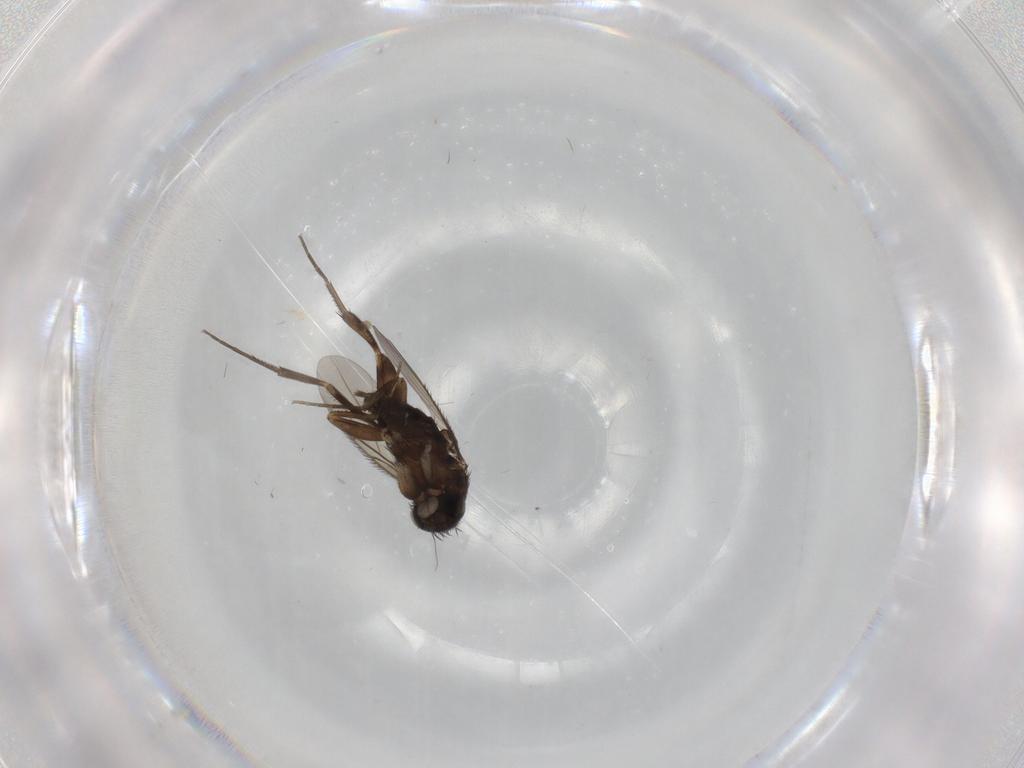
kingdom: Animalia
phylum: Arthropoda
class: Insecta
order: Diptera
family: Phoridae
